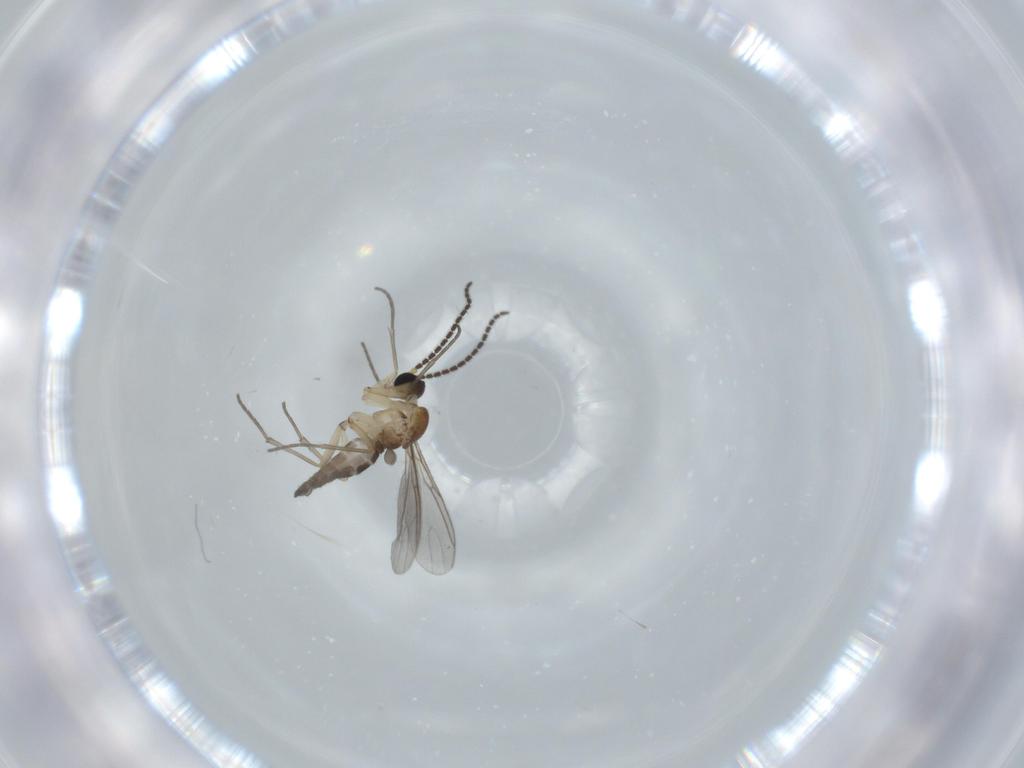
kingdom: Animalia
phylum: Arthropoda
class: Insecta
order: Diptera
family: Sciaridae
